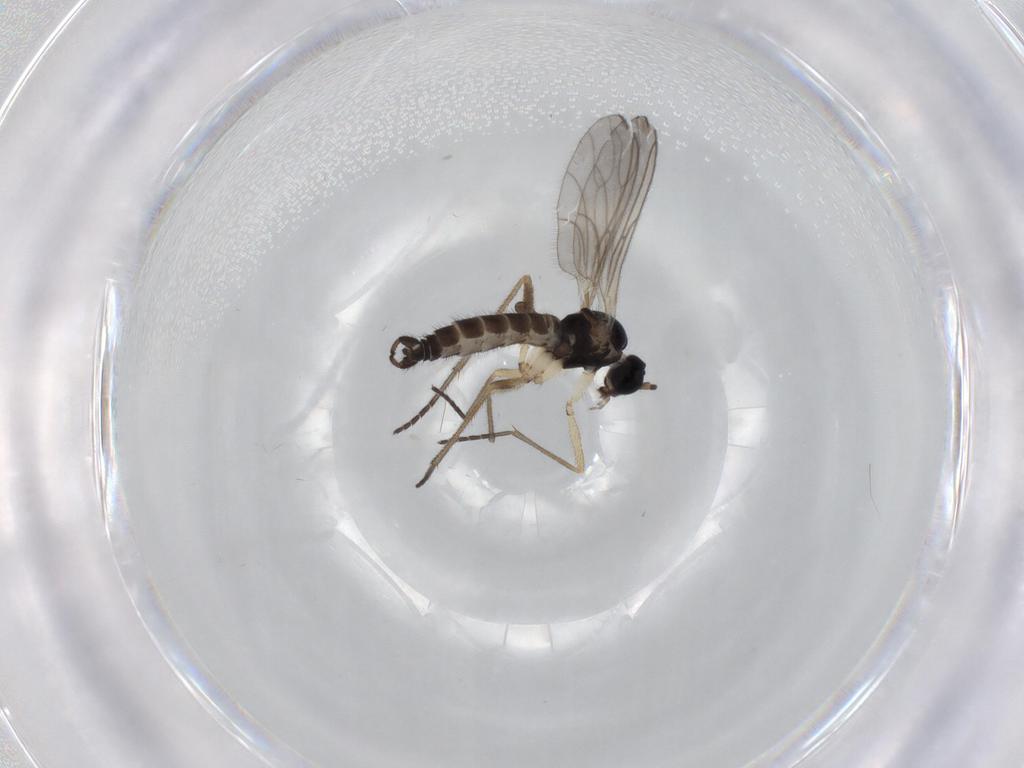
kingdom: Animalia
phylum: Arthropoda
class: Insecta
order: Diptera
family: Sciaridae
